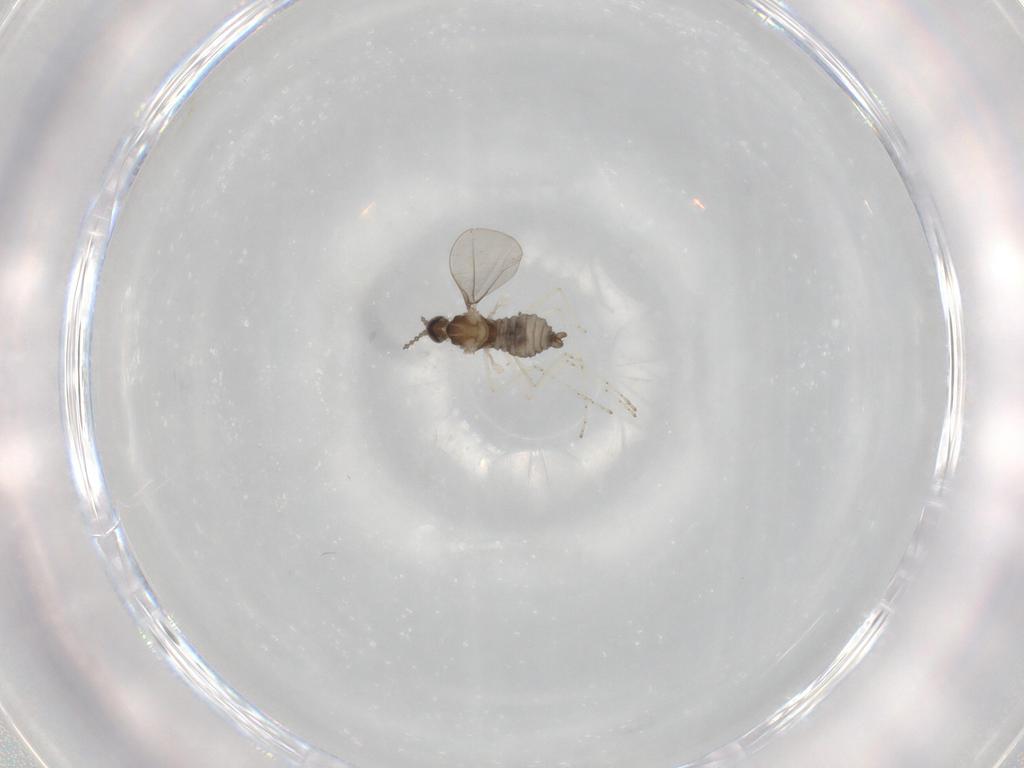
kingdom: Animalia
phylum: Arthropoda
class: Insecta
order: Diptera
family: Cecidomyiidae
